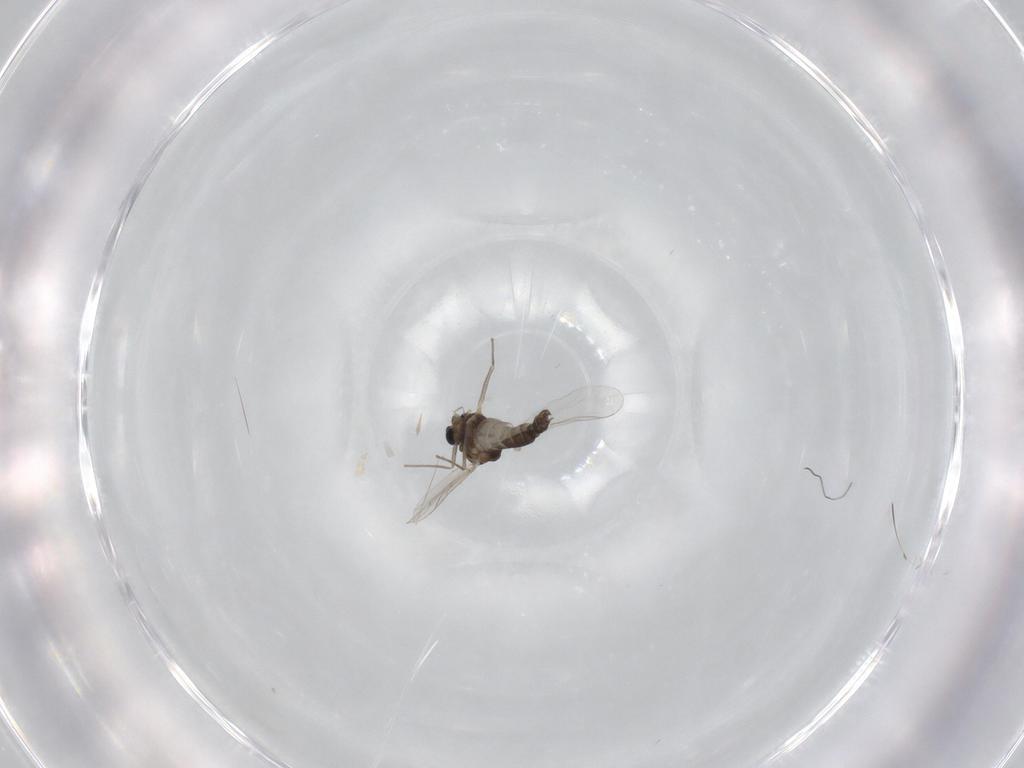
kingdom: Animalia
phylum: Arthropoda
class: Insecta
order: Diptera
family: Chironomidae
